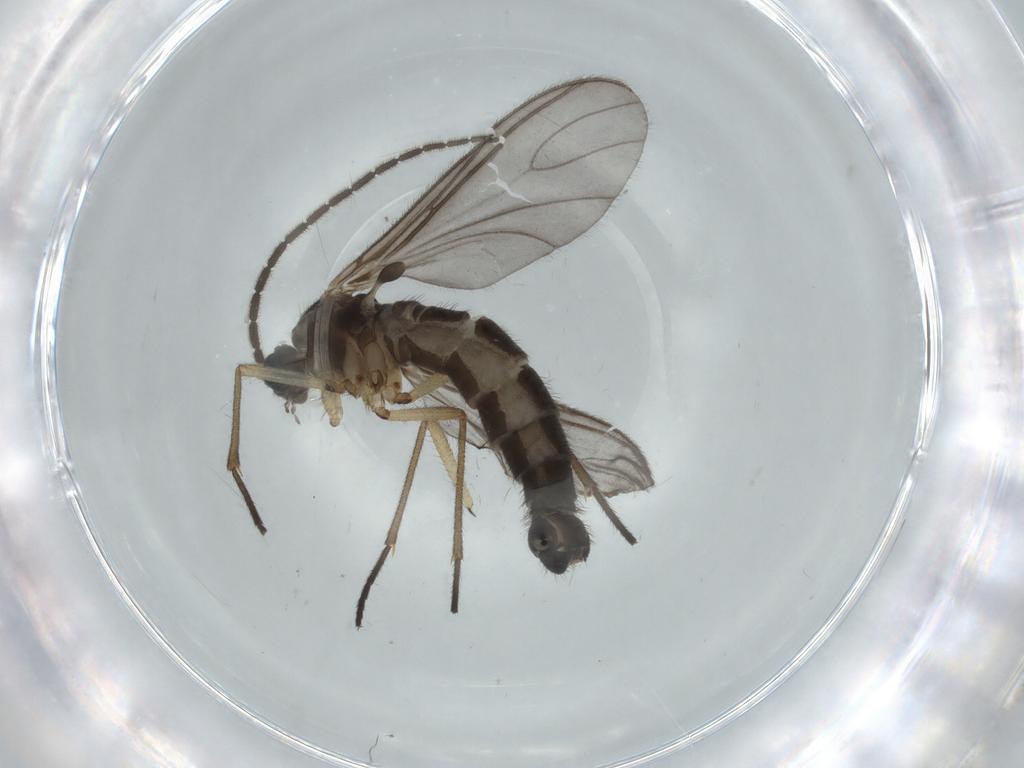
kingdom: Animalia
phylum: Arthropoda
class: Insecta
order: Diptera
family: Sciaridae
